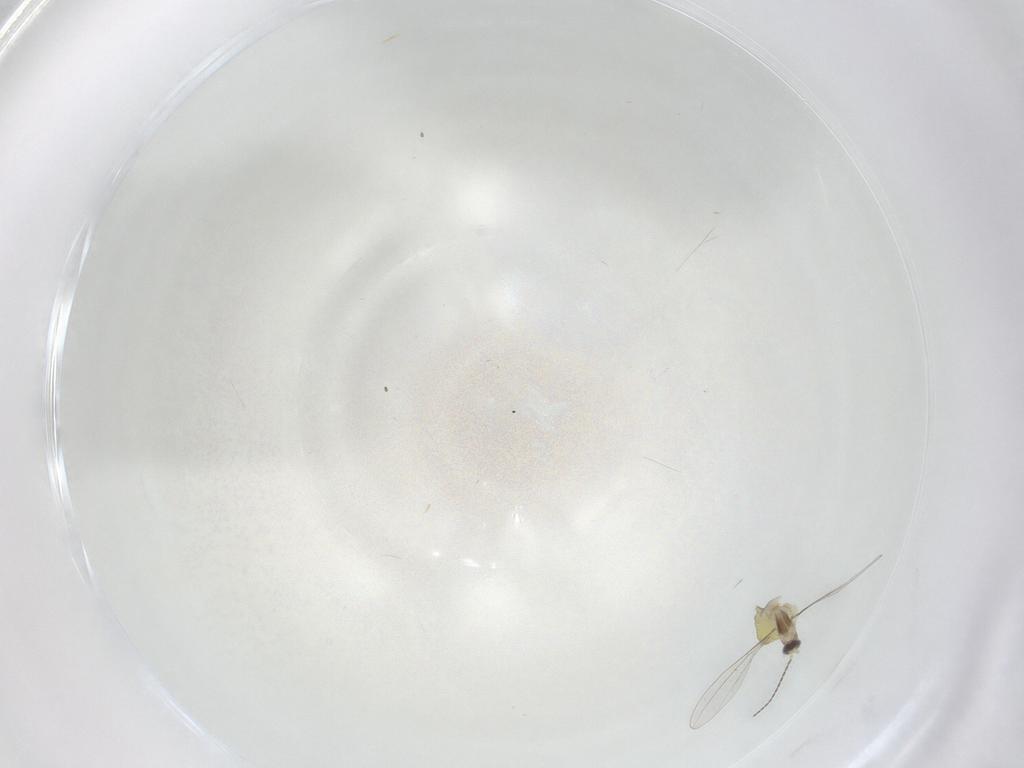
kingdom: Animalia
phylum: Arthropoda
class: Insecta
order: Diptera
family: Cecidomyiidae
